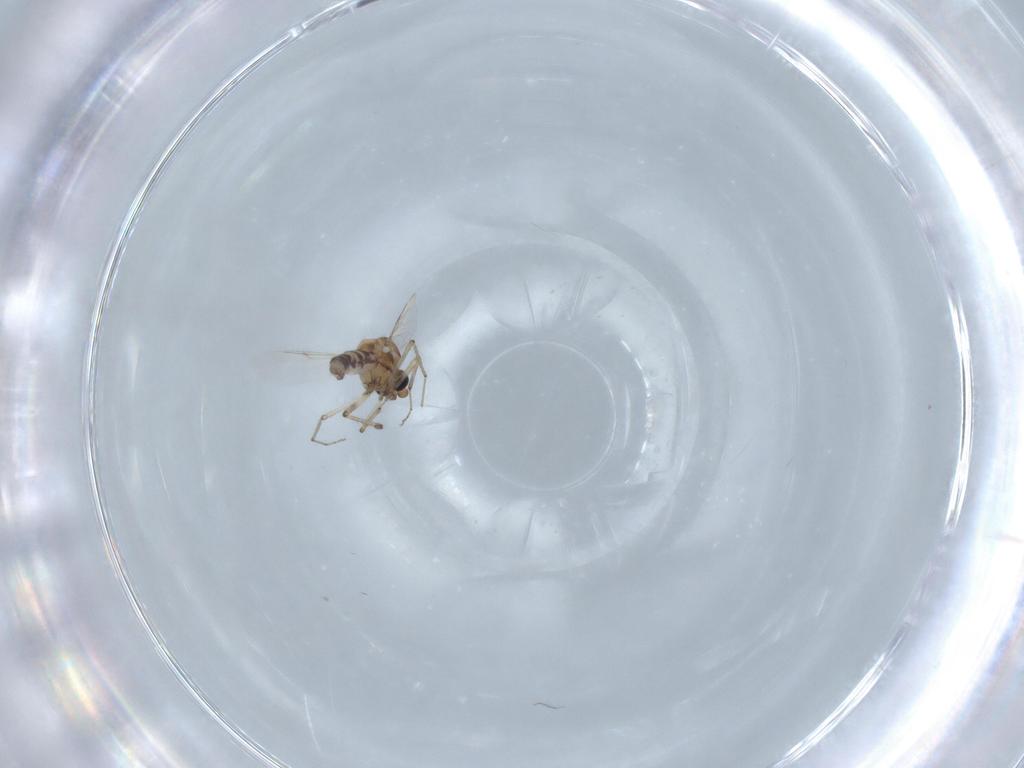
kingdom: Animalia
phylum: Arthropoda
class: Insecta
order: Diptera
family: Ceratopogonidae
